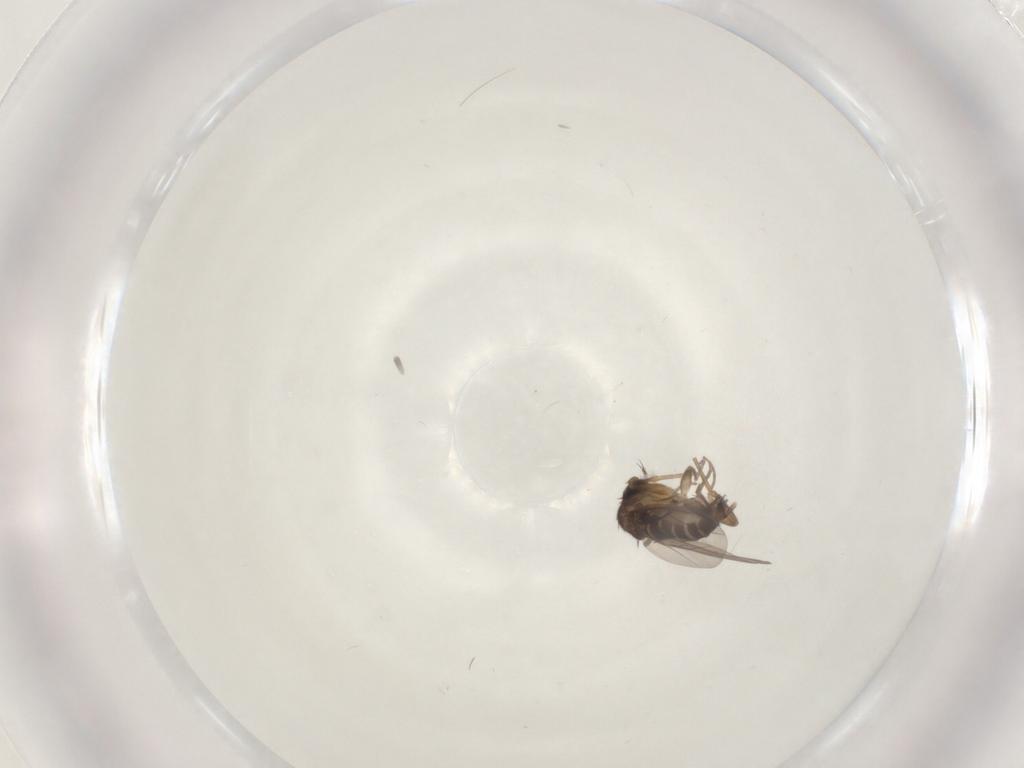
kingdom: Animalia
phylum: Arthropoda
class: Insecta
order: Diptera
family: Phoridae
